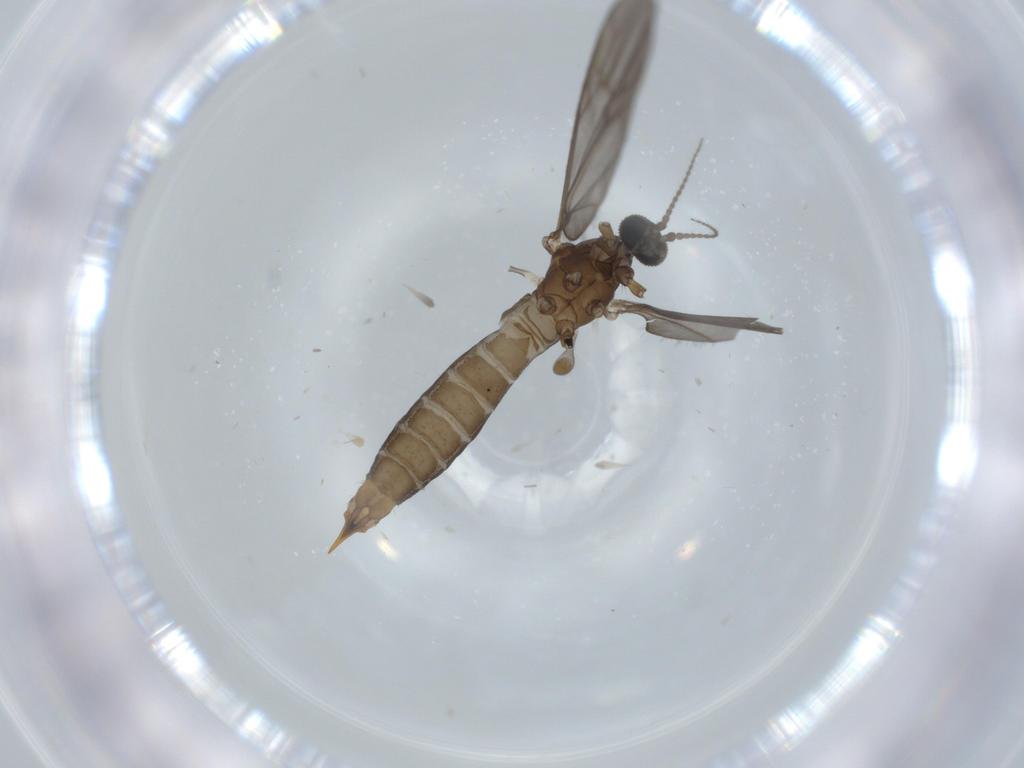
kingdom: Animalia
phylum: Arthropoda
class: Insecta
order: Diptera
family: Limoniidae
